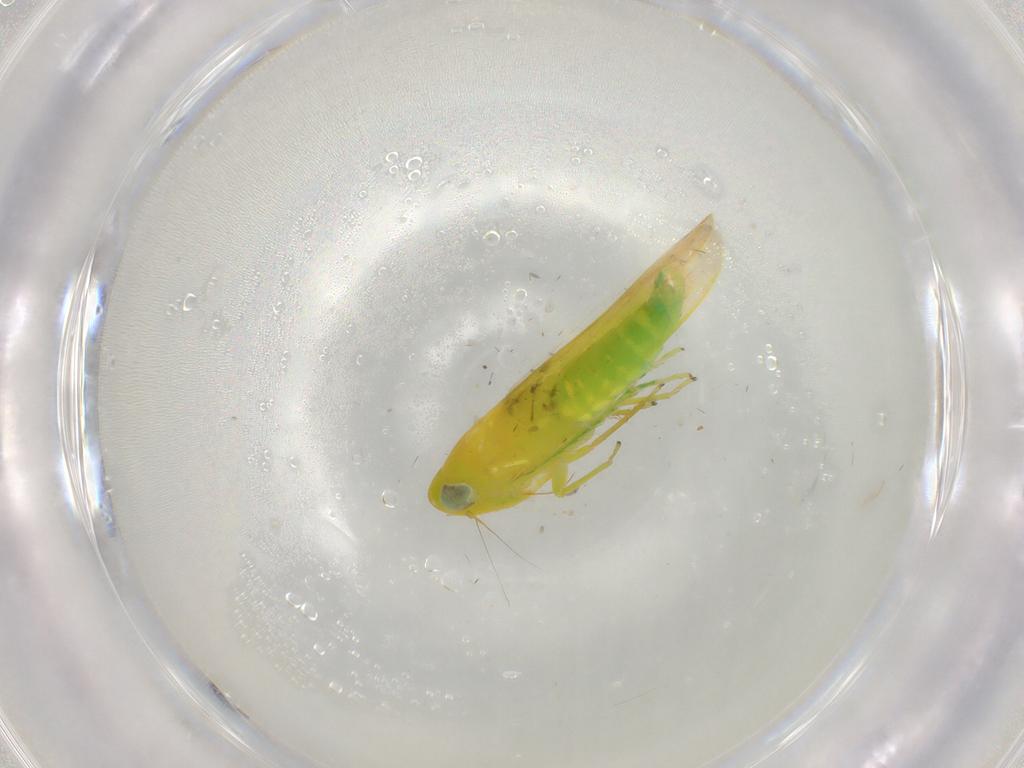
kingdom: Animalia
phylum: Arthropoda
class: Insecta
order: Hemiptera
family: Cicadellidae
